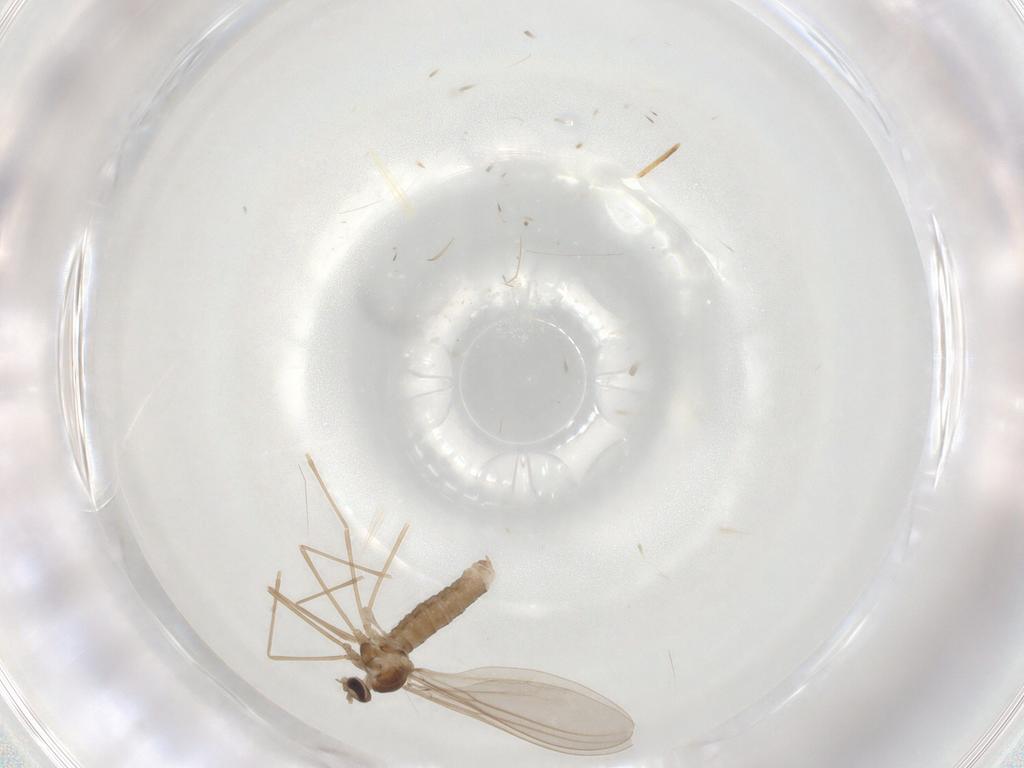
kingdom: Animalia
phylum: Arthropoda
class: Insecta
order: Diptera
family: Cecidomyiidae
